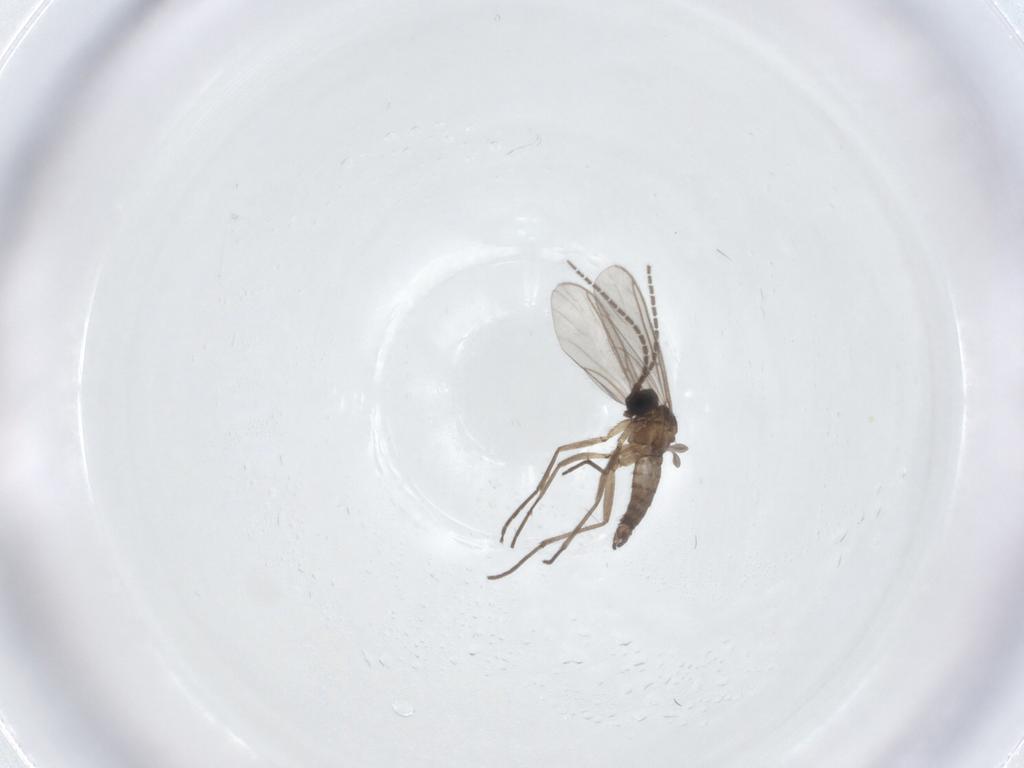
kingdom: Animalia
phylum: Arthropoda
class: Insecta
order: Diptera
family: Sciaridae
